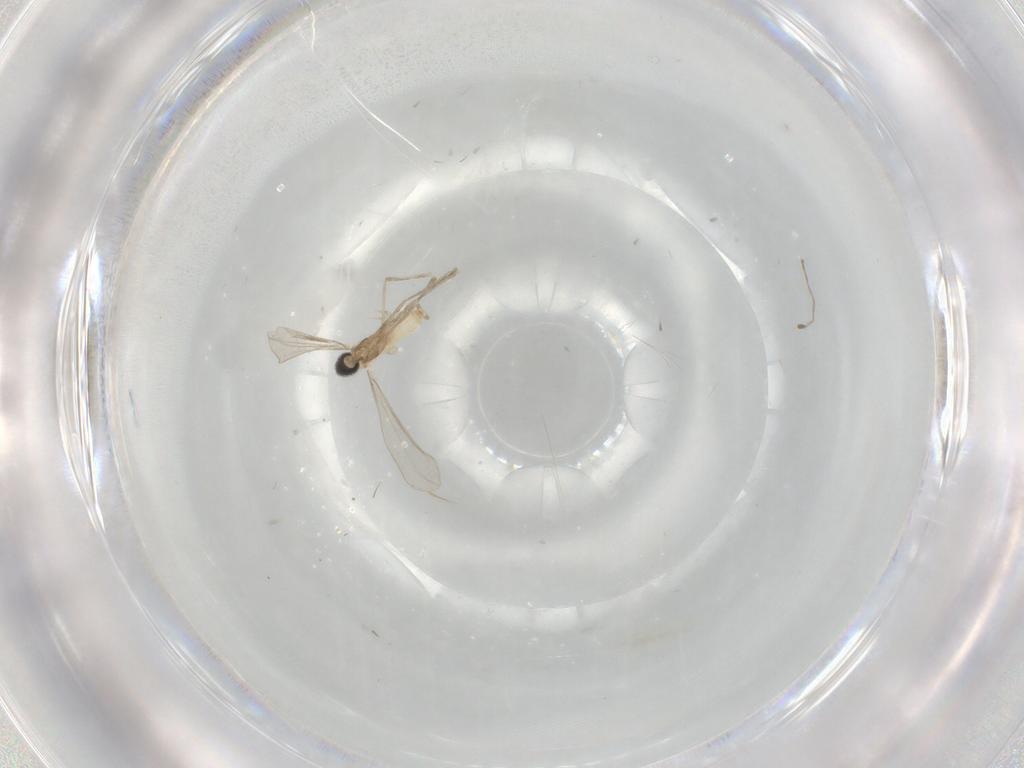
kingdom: Animalia
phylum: Arthropoda
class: Insecta
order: Diptera
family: Cecidomyiidae
